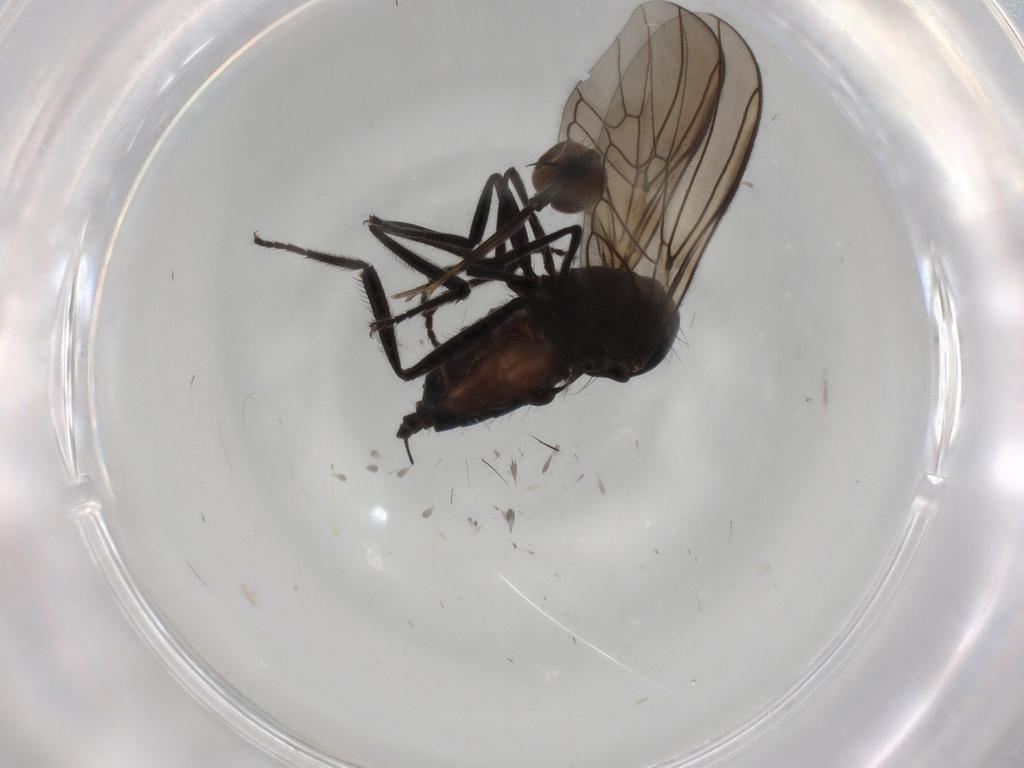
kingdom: Animalia
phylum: Arthropoda
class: Insecta
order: Diptera
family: Empididae
